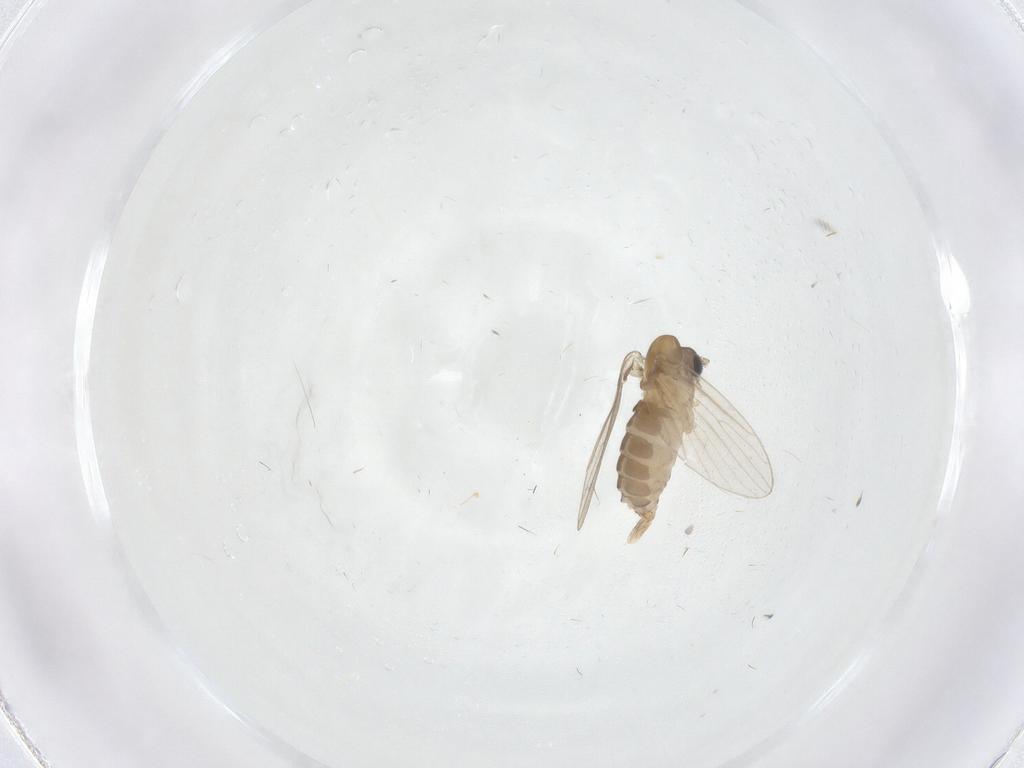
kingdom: Animalia
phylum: Arthropoda
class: Insecta
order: Diptera
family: Psychodidae
